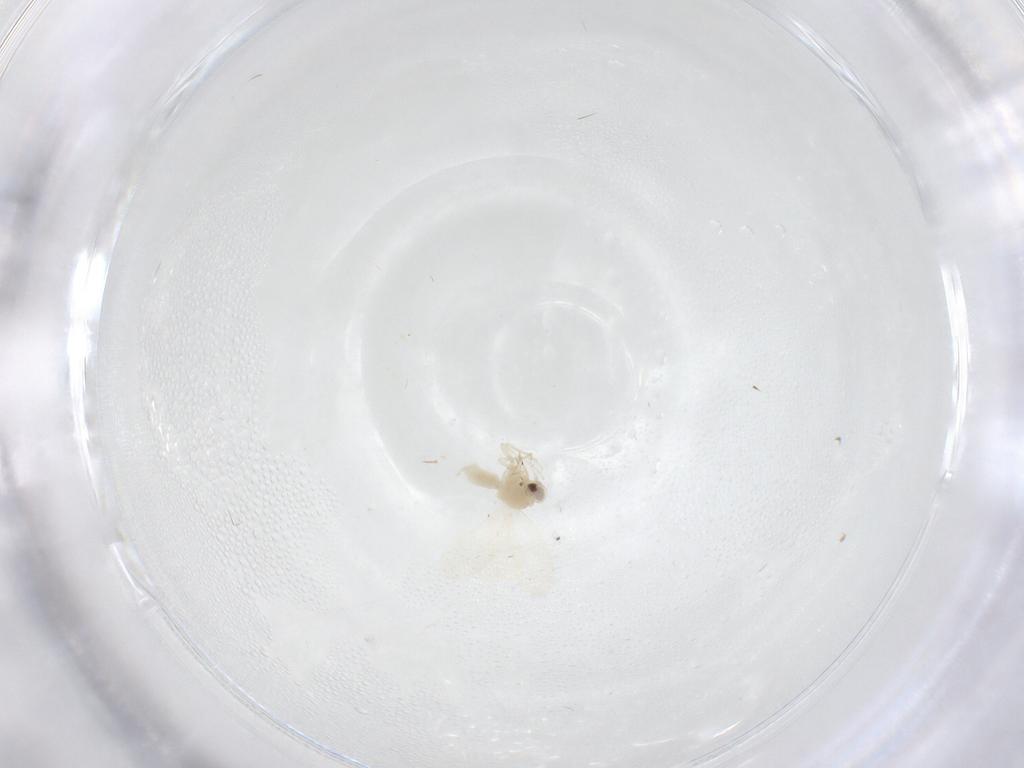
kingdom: Animalia
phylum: Arthropoda
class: Insecta
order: Hemiptera
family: Aleyrodidae
